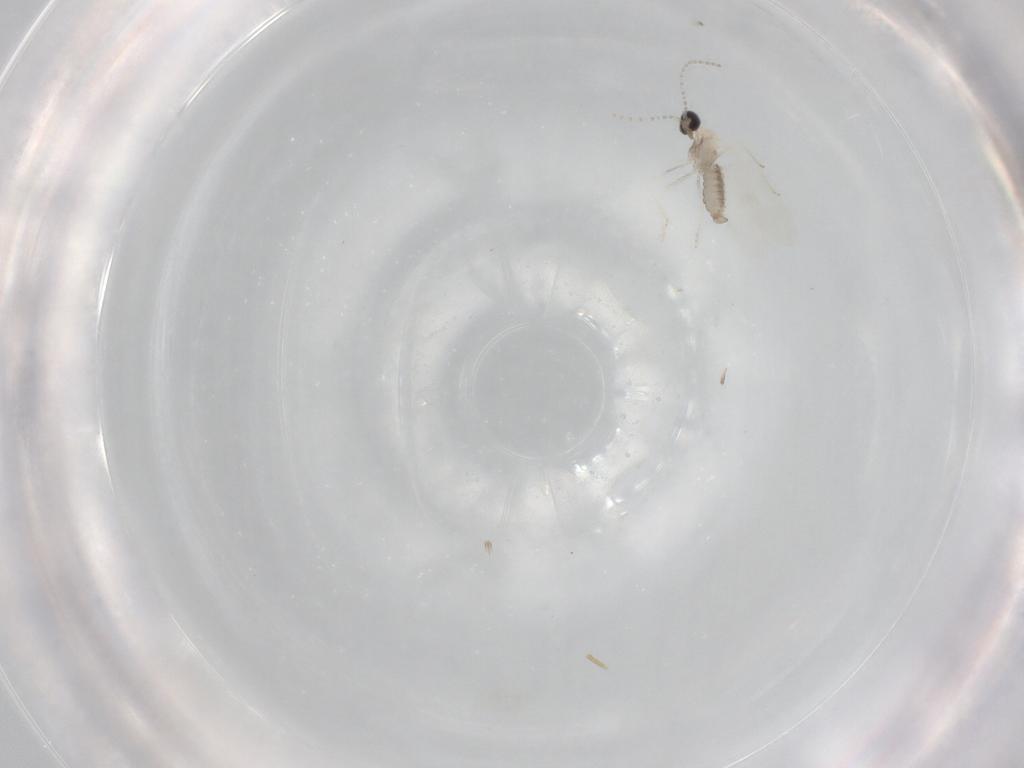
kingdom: Animalia
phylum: Arthropoda
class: Insecta
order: Diptera
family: Cecidomyiidae
